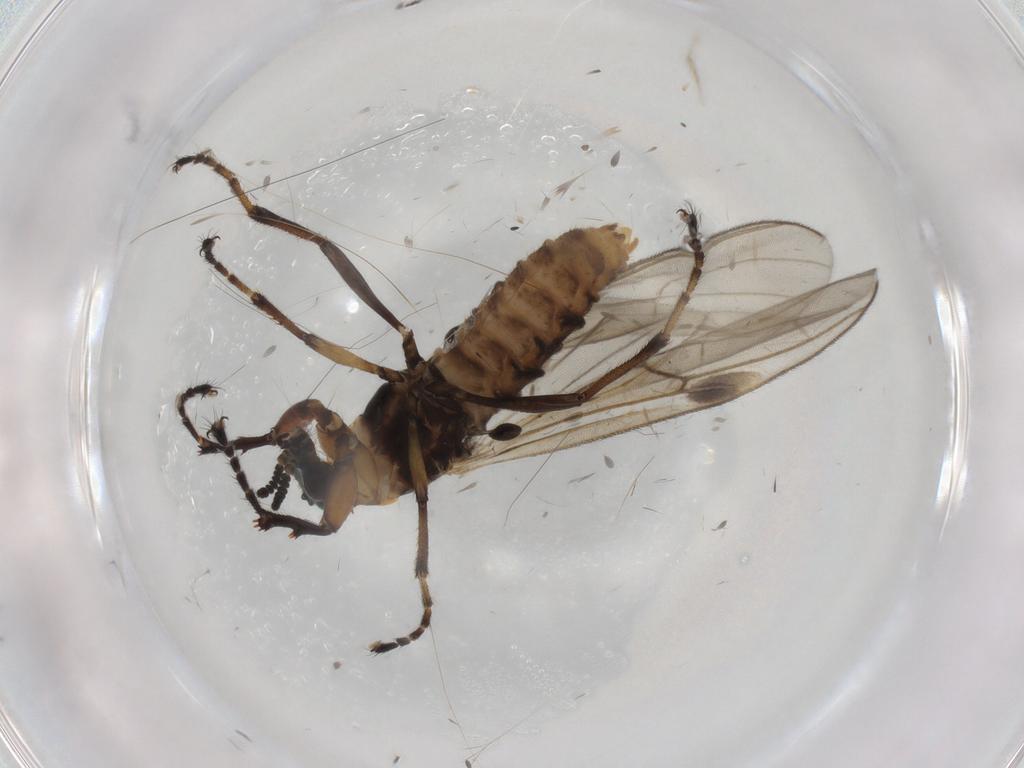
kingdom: Animalia
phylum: Arthropoda
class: Insecta
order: Diptera
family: Bibionidae
